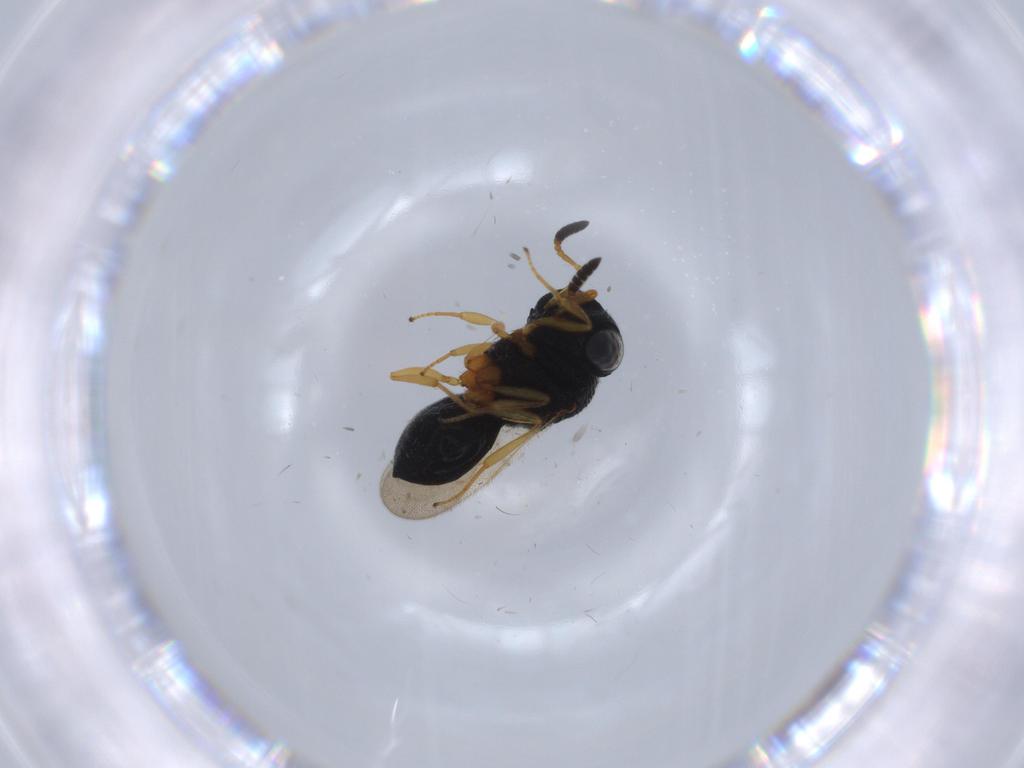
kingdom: Animalia
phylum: Arthropoda
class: Insecta
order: Hymenoptera
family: Scelionidae
